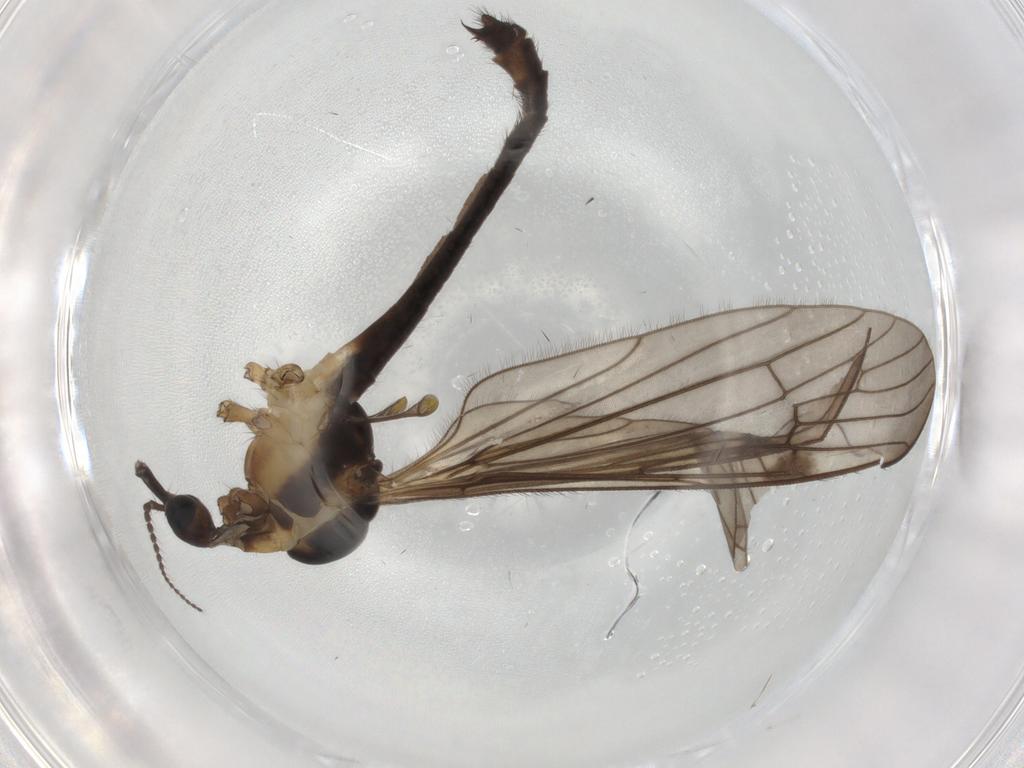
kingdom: Animalia
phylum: Arthropoda
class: Insecta
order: Diptera
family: Limoniidae
